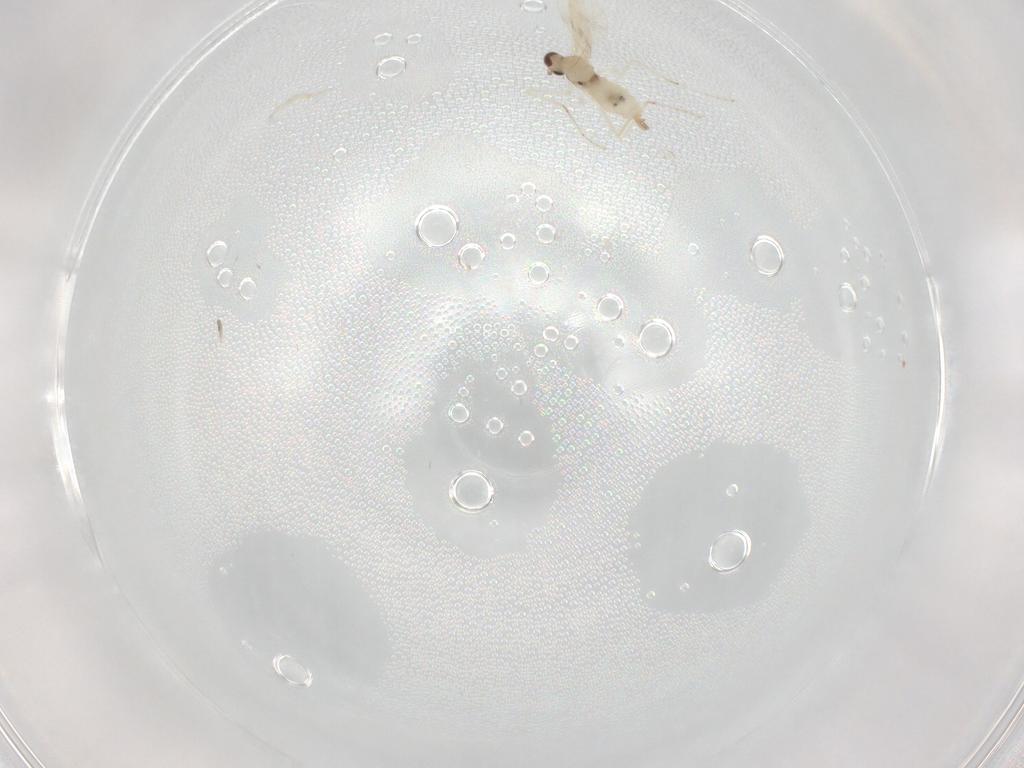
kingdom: Animalia
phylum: Arthropoda
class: Insecta
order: Diptera
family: Cecidomyiidae
